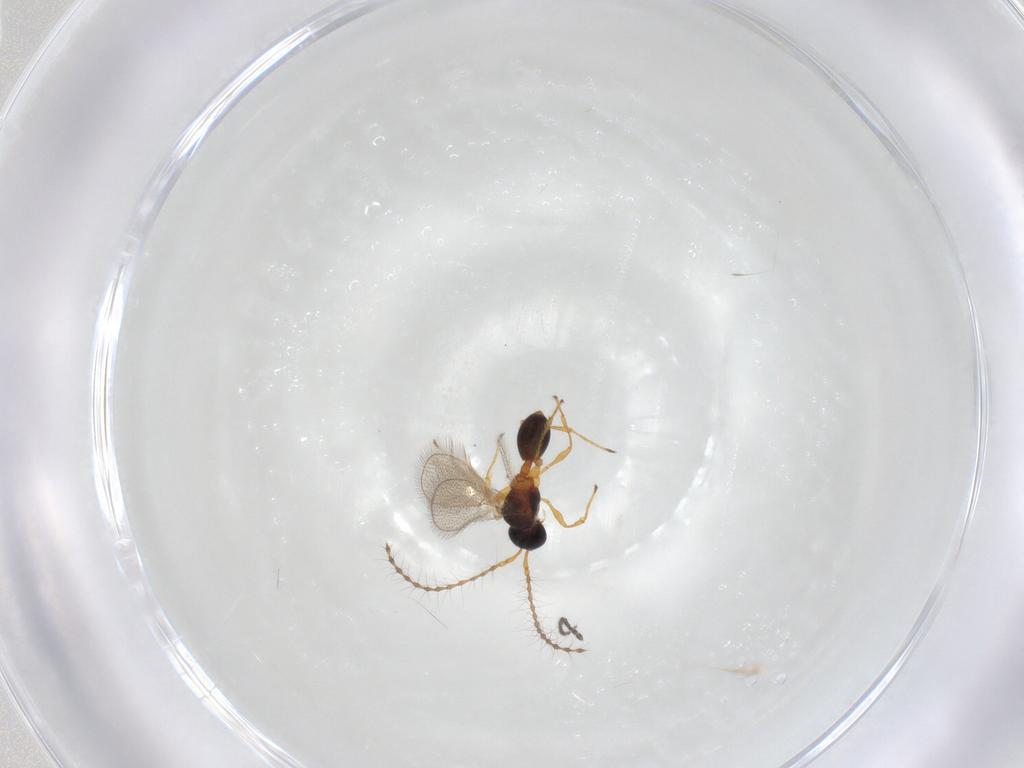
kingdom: Animalia
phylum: Arthropoda
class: Insecta
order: Hymenoptera
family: Diapriidae
